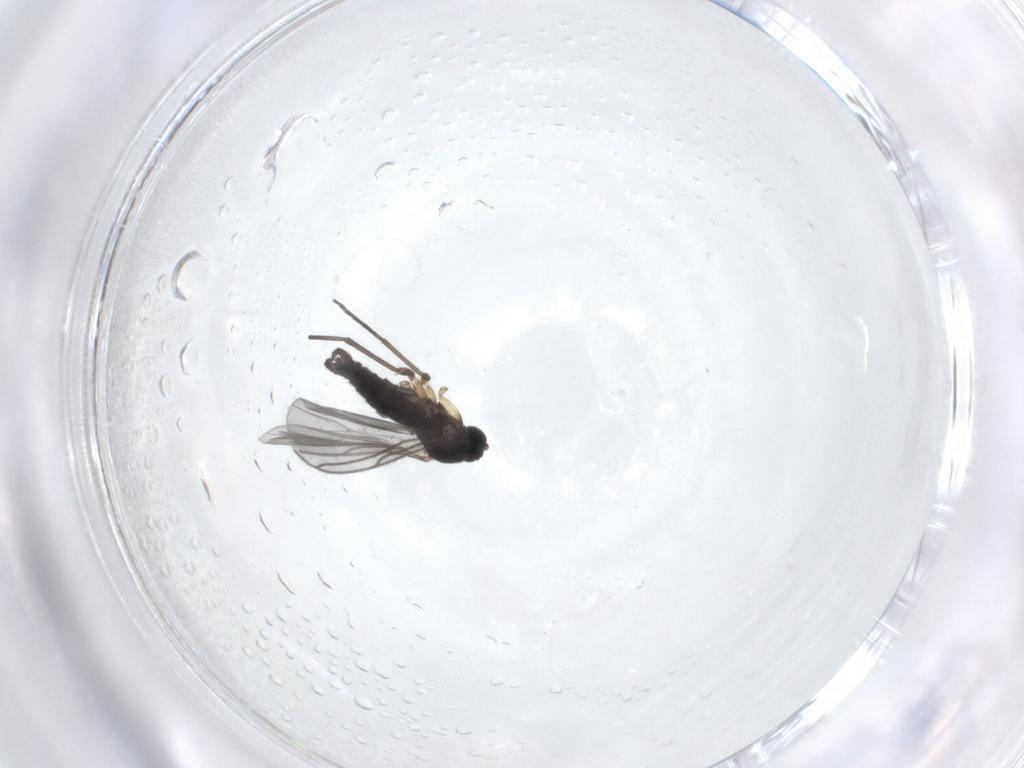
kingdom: Animalia
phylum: Arthropoda
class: Insecta
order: Diptera
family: Sciaridae
